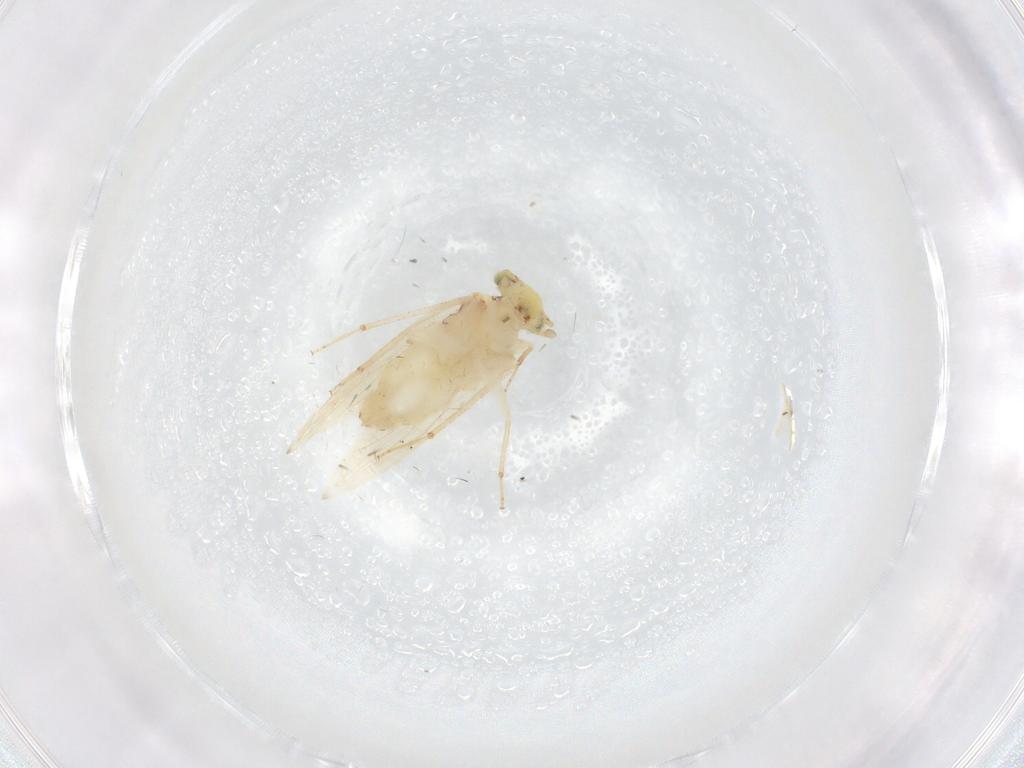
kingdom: Animalia
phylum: Arthropoda
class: Insecta
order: Psocodea
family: Lepidopsocidae
